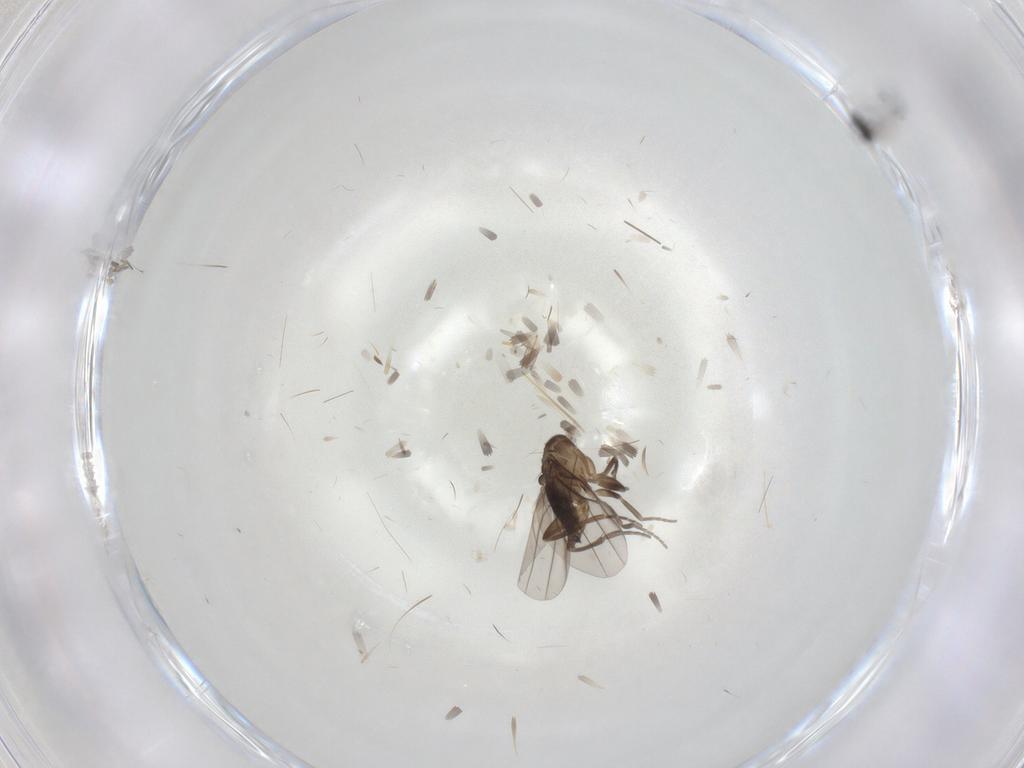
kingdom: Animalia
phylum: Arthropoda
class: Insecta
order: Diptera
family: Phoridae
